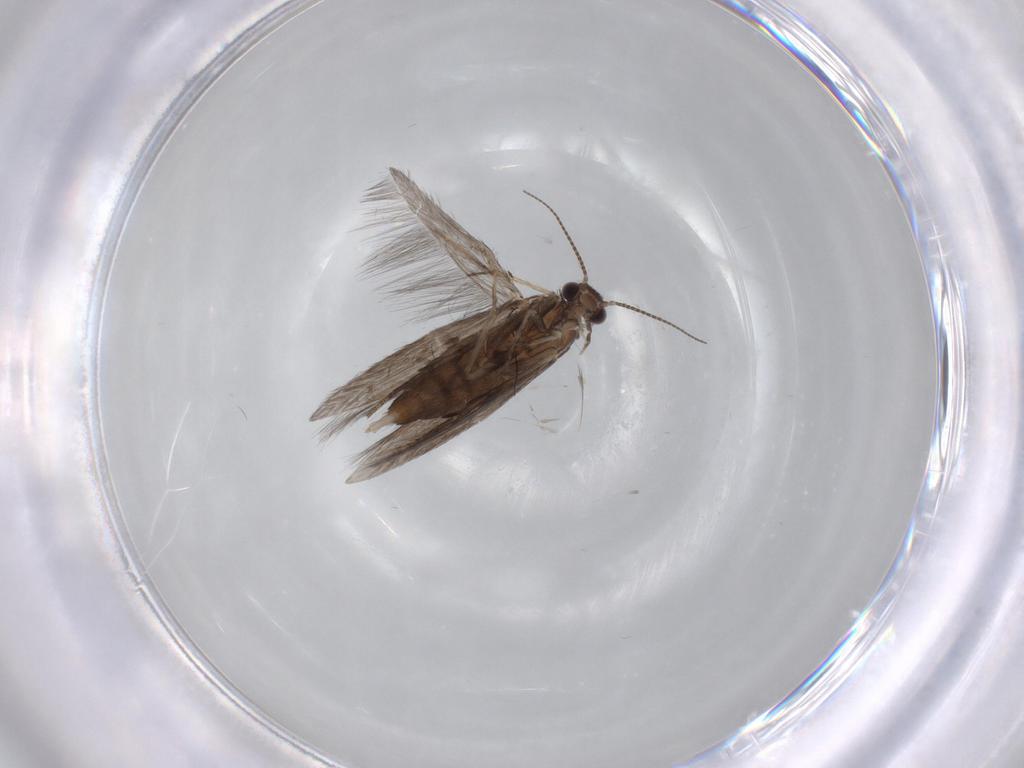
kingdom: Animalia
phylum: Arthropoda
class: Insecta
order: Trichoptera
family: Hydroptilidae
